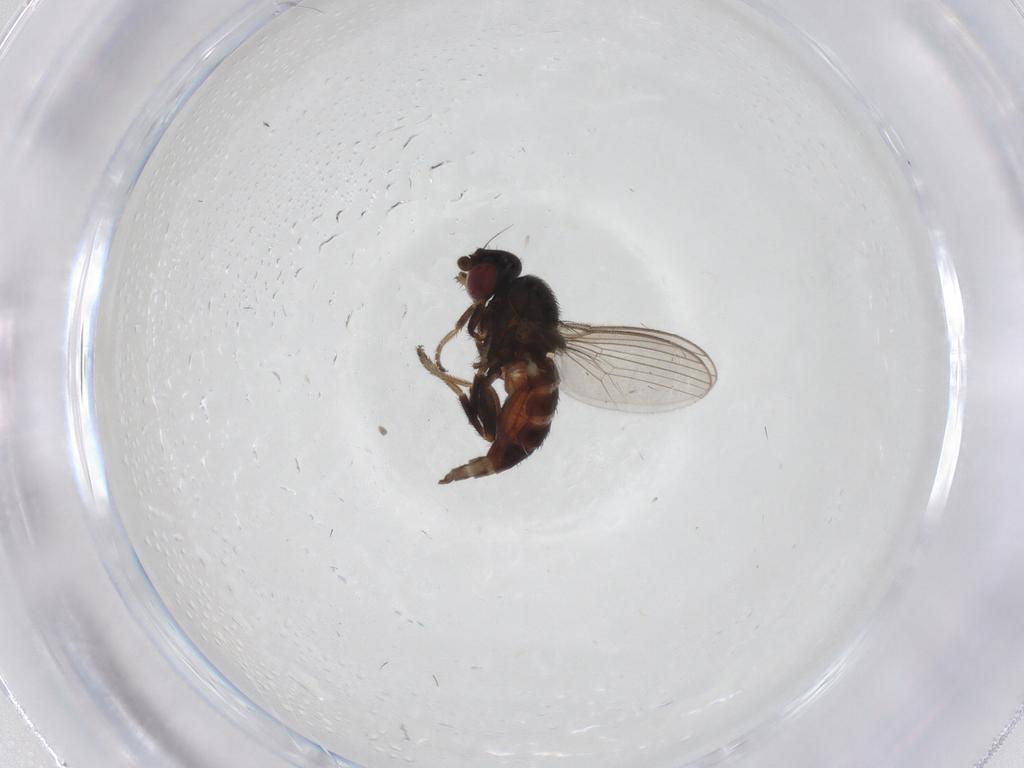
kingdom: Animalia
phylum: Arthropoda
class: Insecta
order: Diptera
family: Milichiidae
